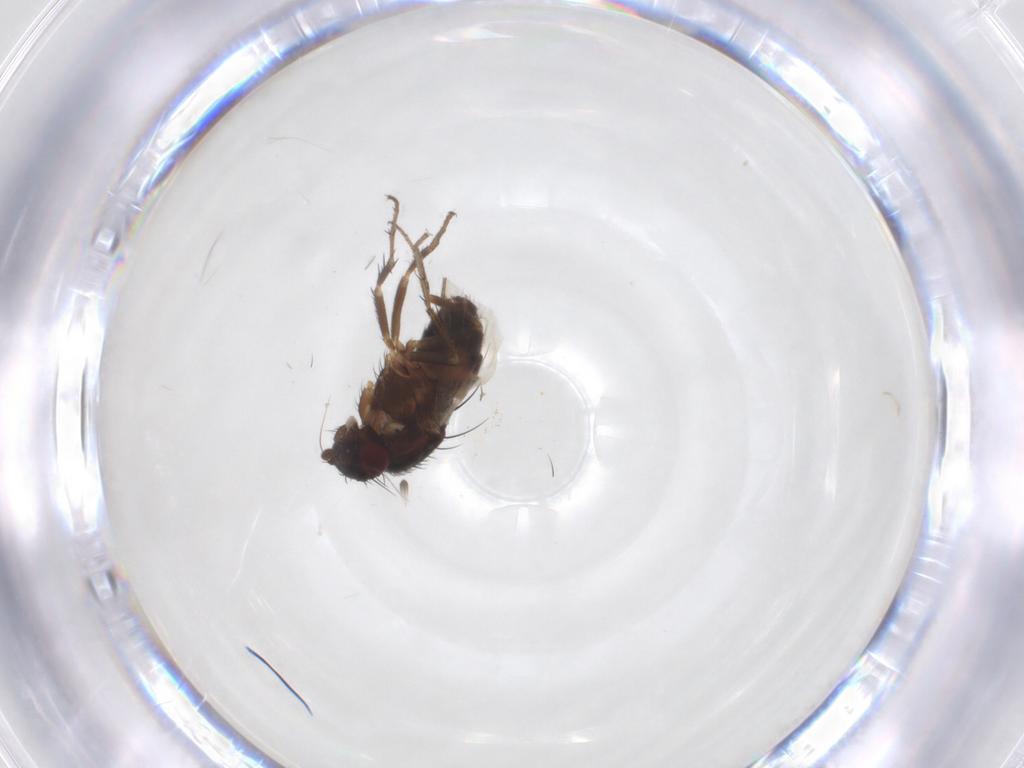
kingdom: Animalia
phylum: Arthropoda
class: Insecta
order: Diptera
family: Sphaeroceridae
